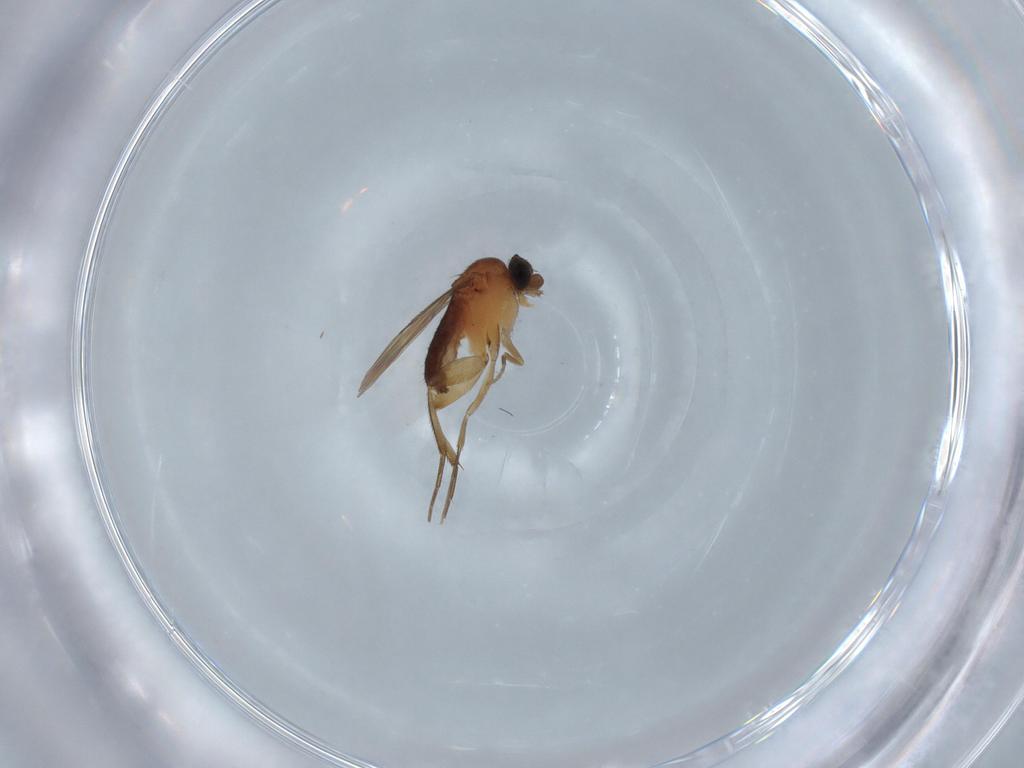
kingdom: Animalia
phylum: Arthropoda
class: Insecta
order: Diptera
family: Phoridae
